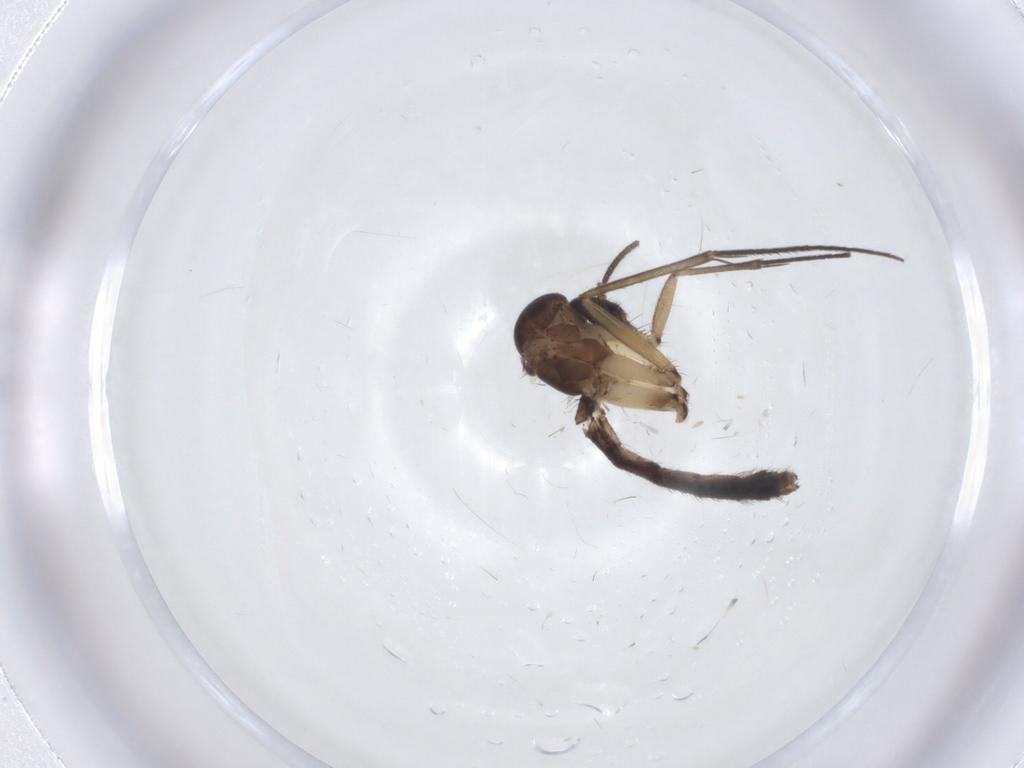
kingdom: Animalia
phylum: Arthropoda
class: Insecta
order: Diptera
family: Mycetophilidae
